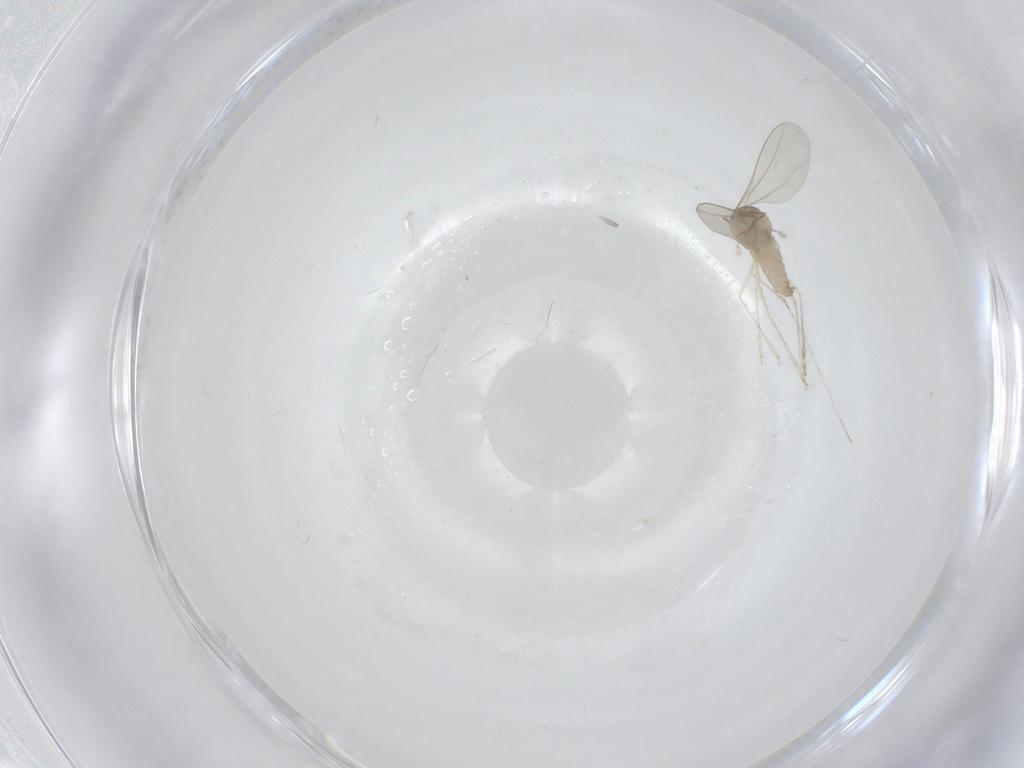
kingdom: Animalia
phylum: Arthropoda
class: Insecta
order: Diptera
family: Cecidomyiidae
